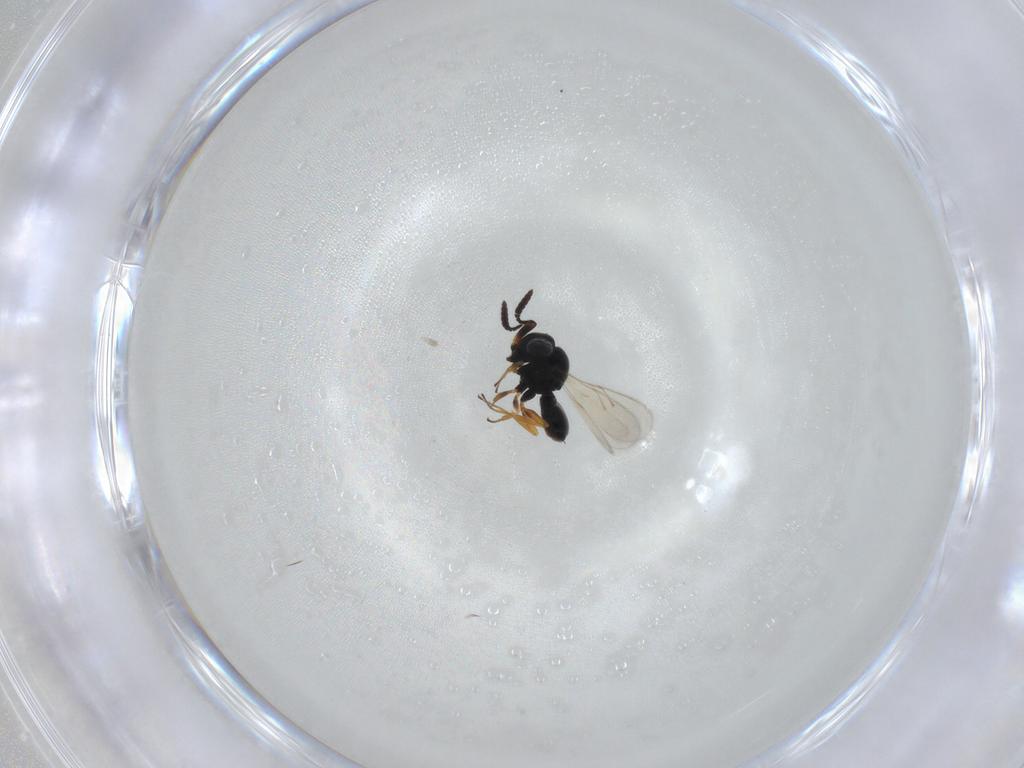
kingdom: Animalia
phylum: Arthropoda
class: Insecta
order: Hymenoptera
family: Scelionidae
